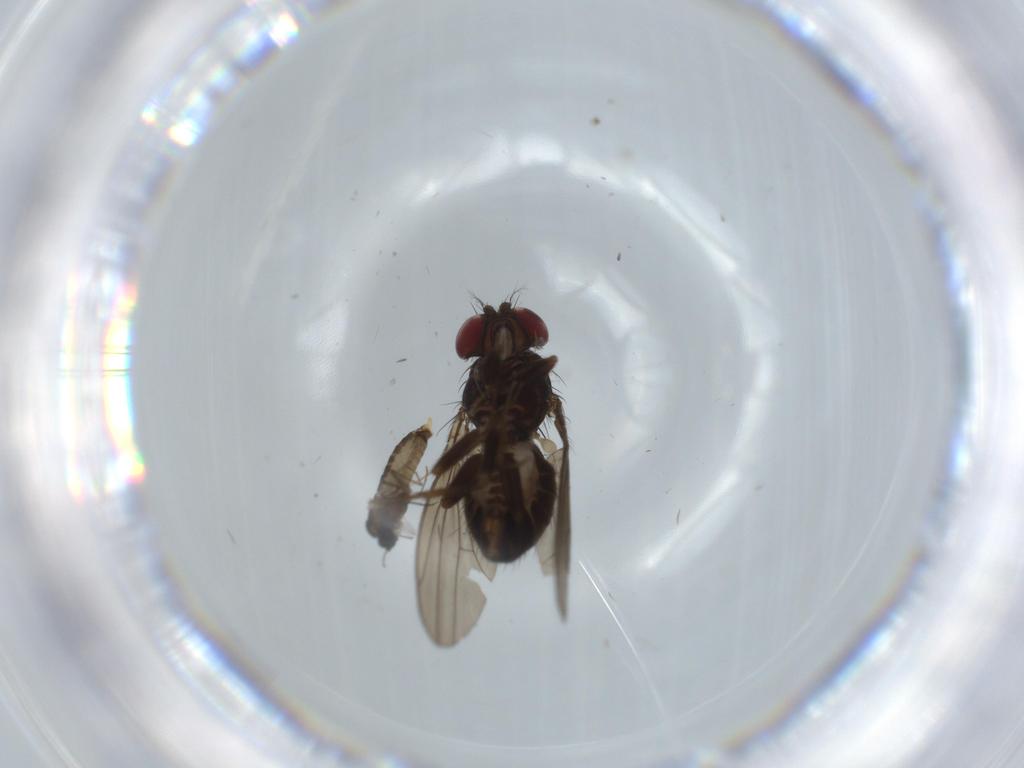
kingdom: Animalia
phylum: Arthropoda
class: Insecta
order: Diptera
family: Drosophilidae
